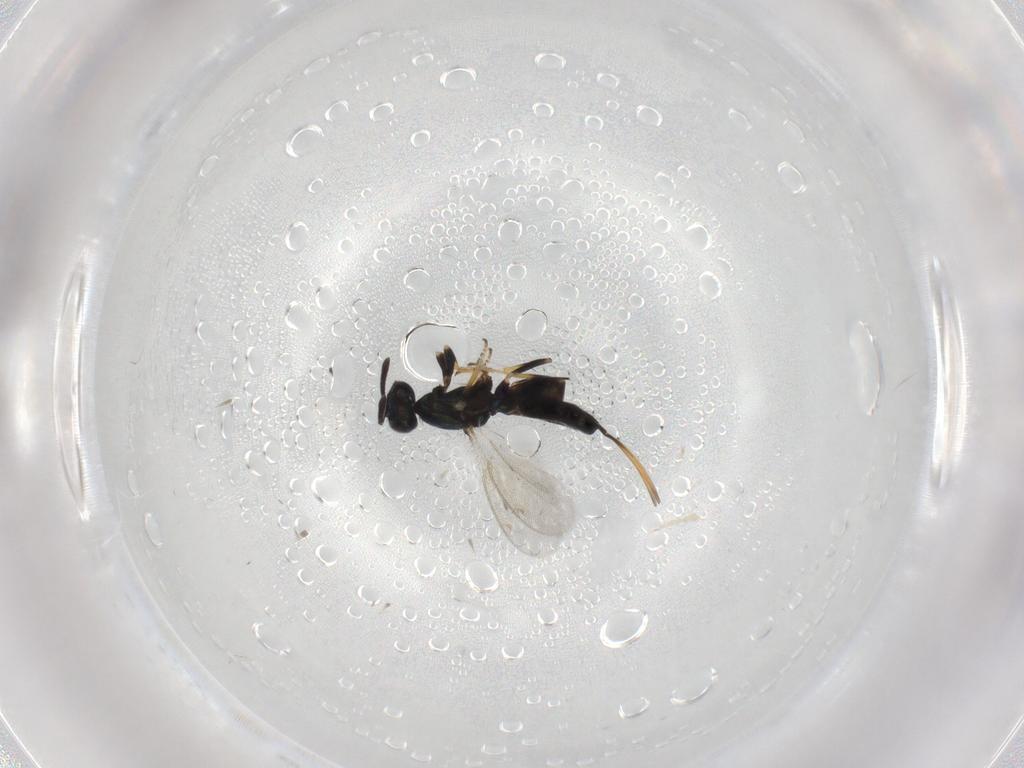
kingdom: Animalia
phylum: Arthropoda
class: Insecta
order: Hymenoptera
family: Eupelmidae
